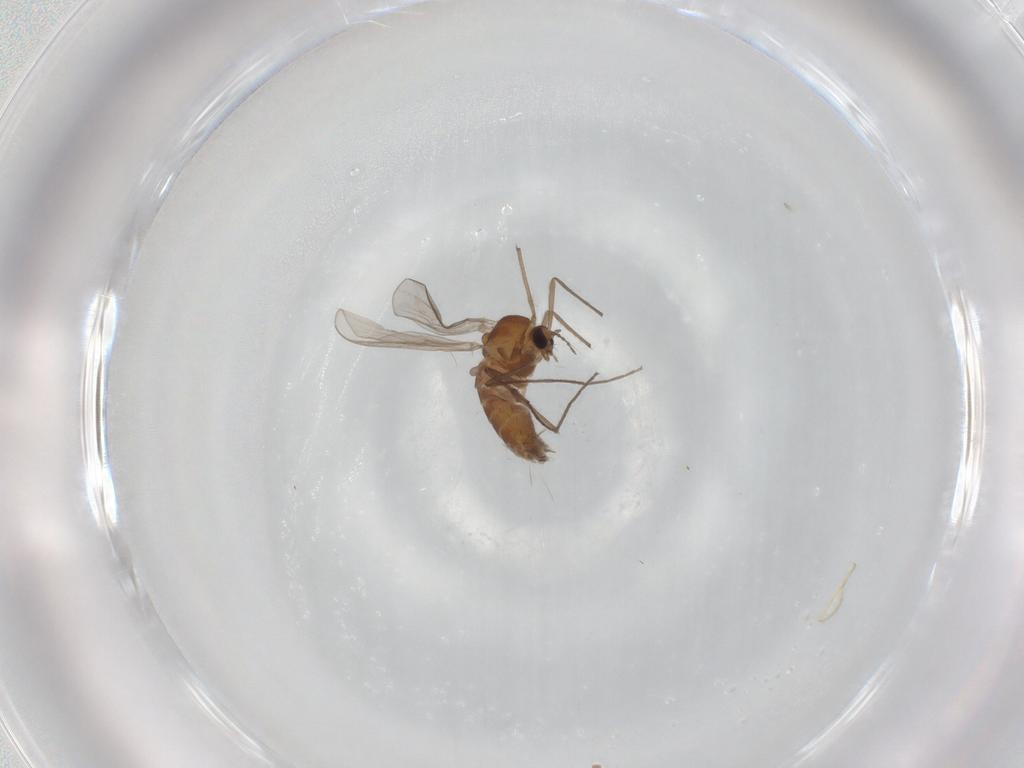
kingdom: Animalia
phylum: Arthropoda
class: Insecta
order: Diptera
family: Chironomidae
